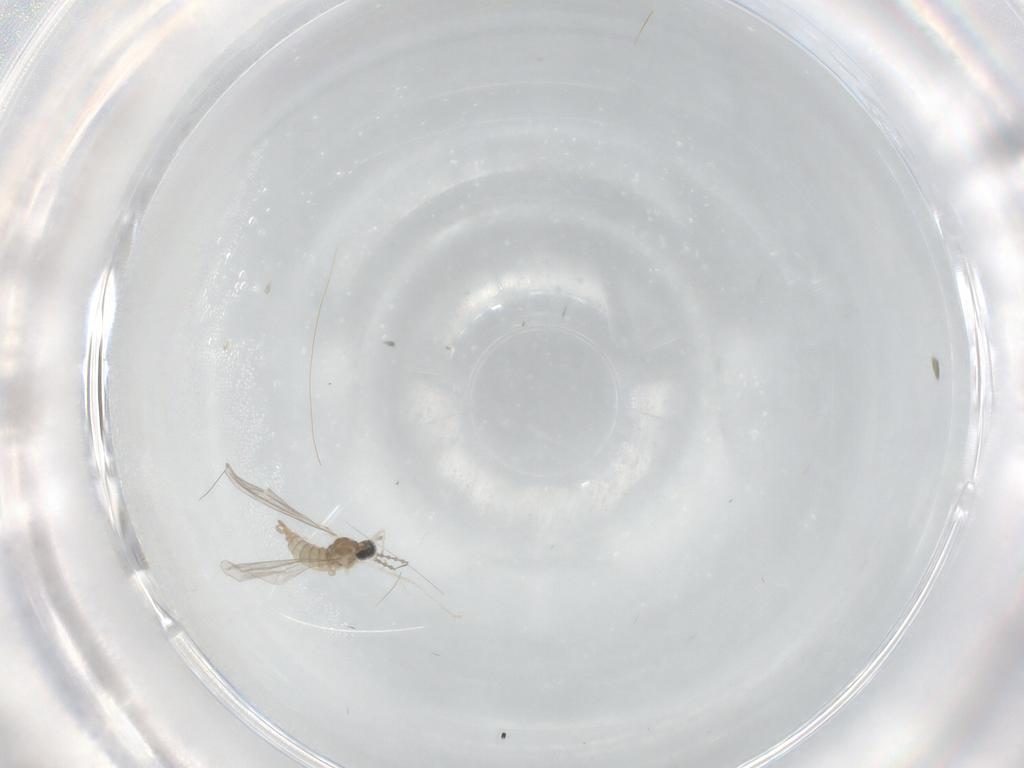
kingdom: Animalia
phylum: Arthropoda
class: Insecta
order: Diptera
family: Cecidomyiidae
